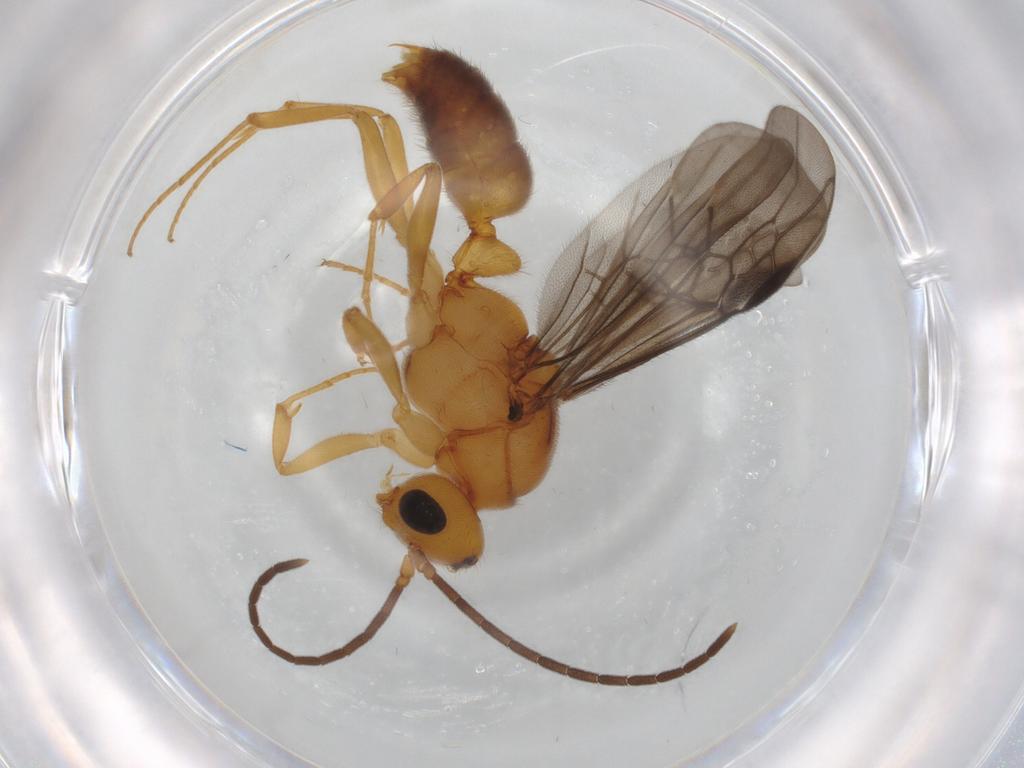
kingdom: Animalia
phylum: Arthropoda
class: Insecta
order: Hymenoptera
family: Formicidae
